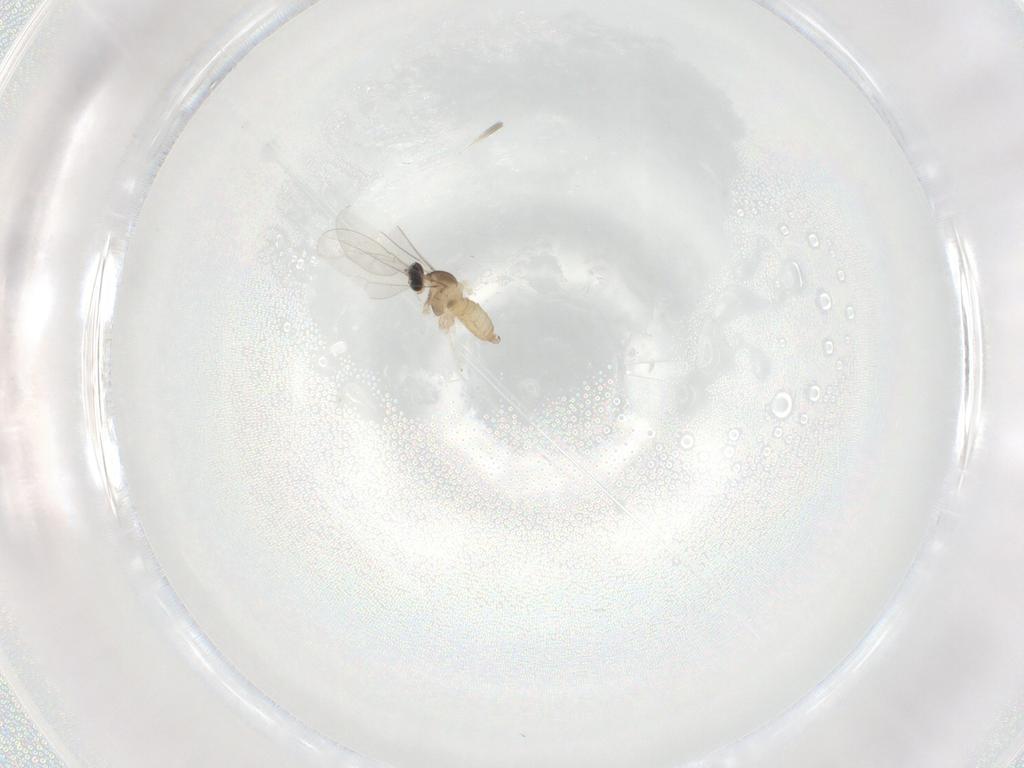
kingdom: Animalia
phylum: Arthropoda
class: Insecta
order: Diptera
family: Cecidomyiidae
